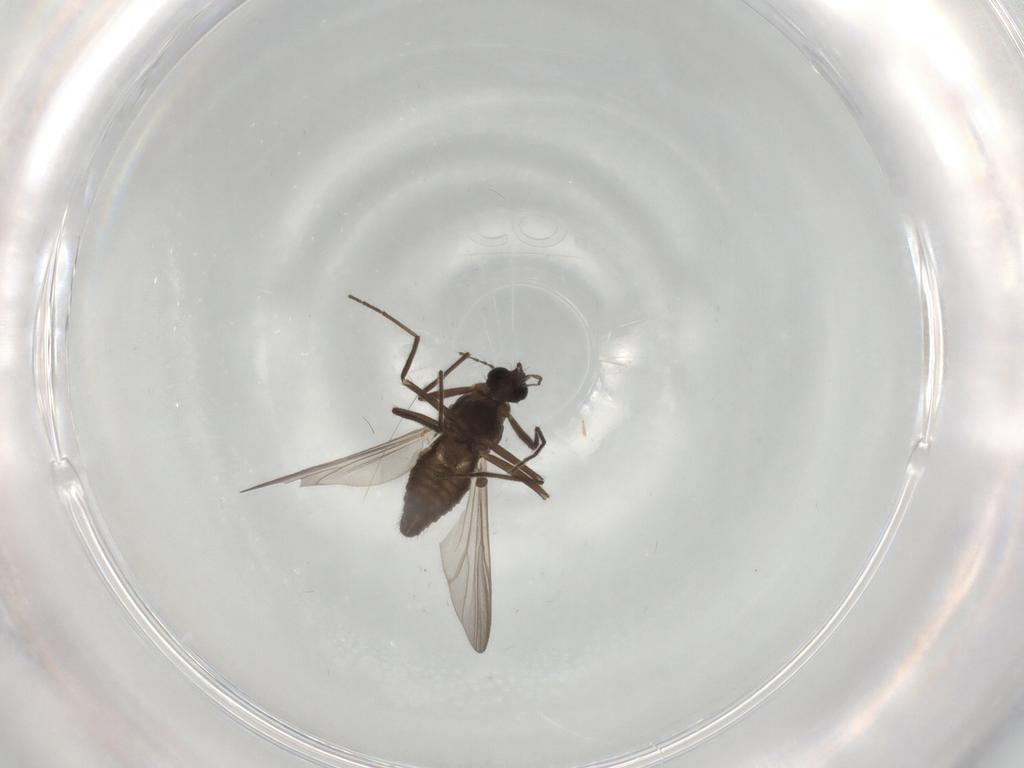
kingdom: Animalia
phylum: Arthropoda
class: Insecta
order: Diptera
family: Chironomidae
